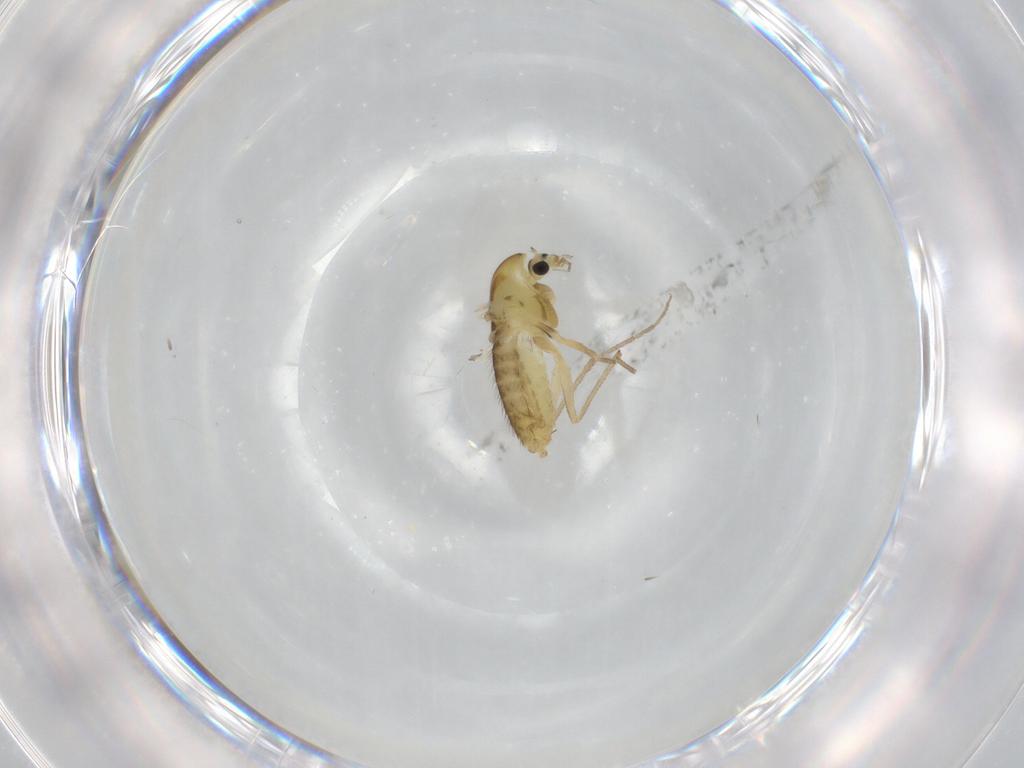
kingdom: Animalia
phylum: Arthropoda
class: Insecta
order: Diptera
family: Chironomidae
